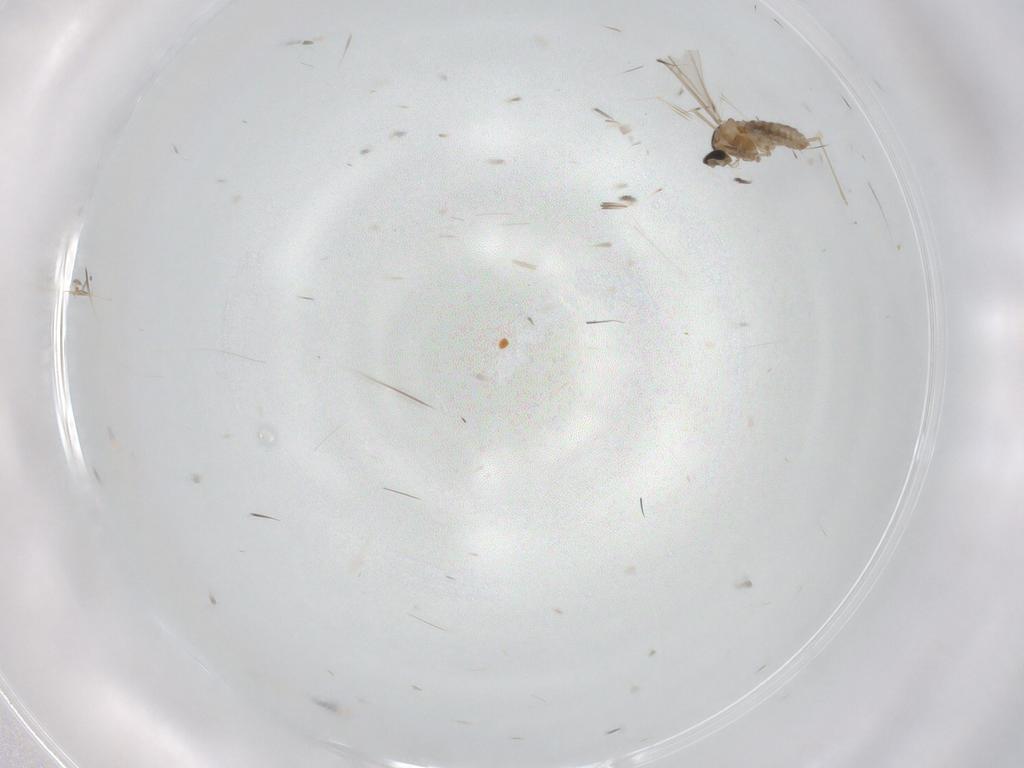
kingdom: Animalia
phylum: Arthropoda
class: Insecta
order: Diptera
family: Cecidomyiidae
